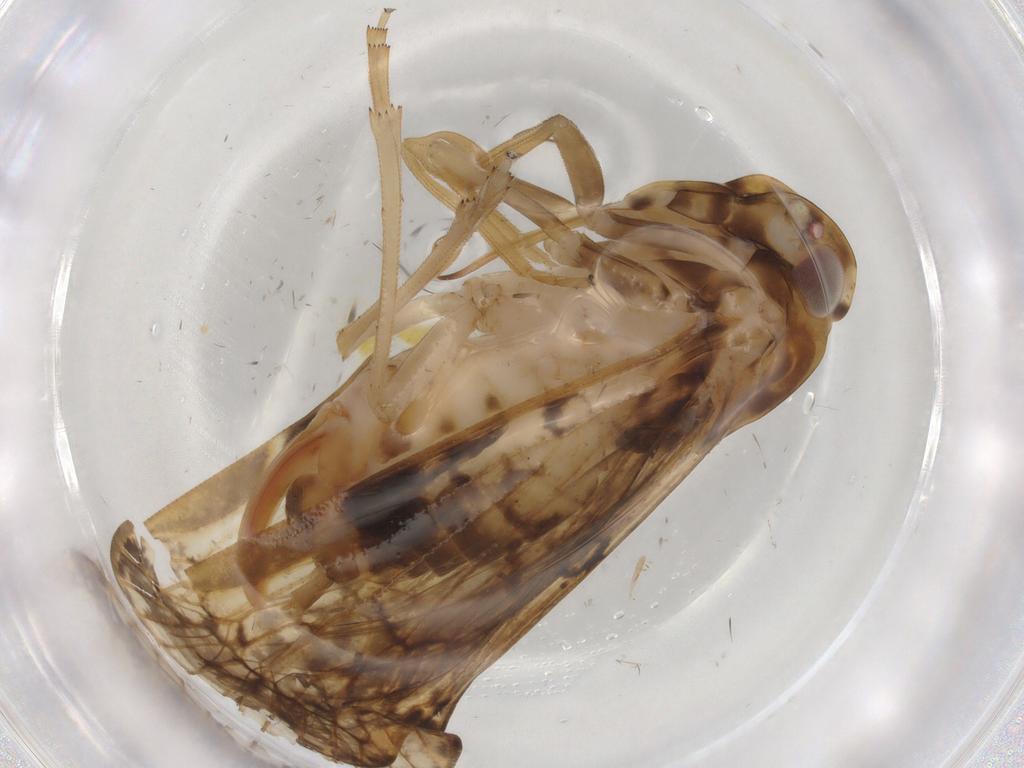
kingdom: Animalia
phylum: Arthropoda
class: Insecta
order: Hemiptera
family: Cixiidae
